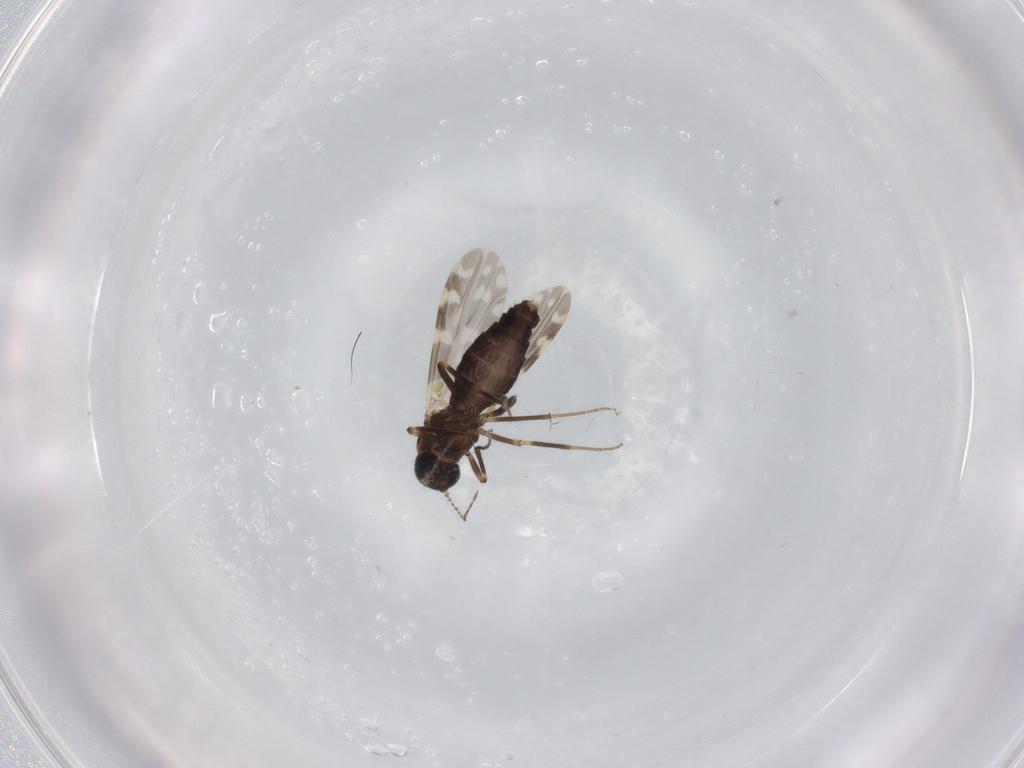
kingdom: Animalia
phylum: Arthropoda
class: Insecta
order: Diptera
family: Ceratopogonidae
